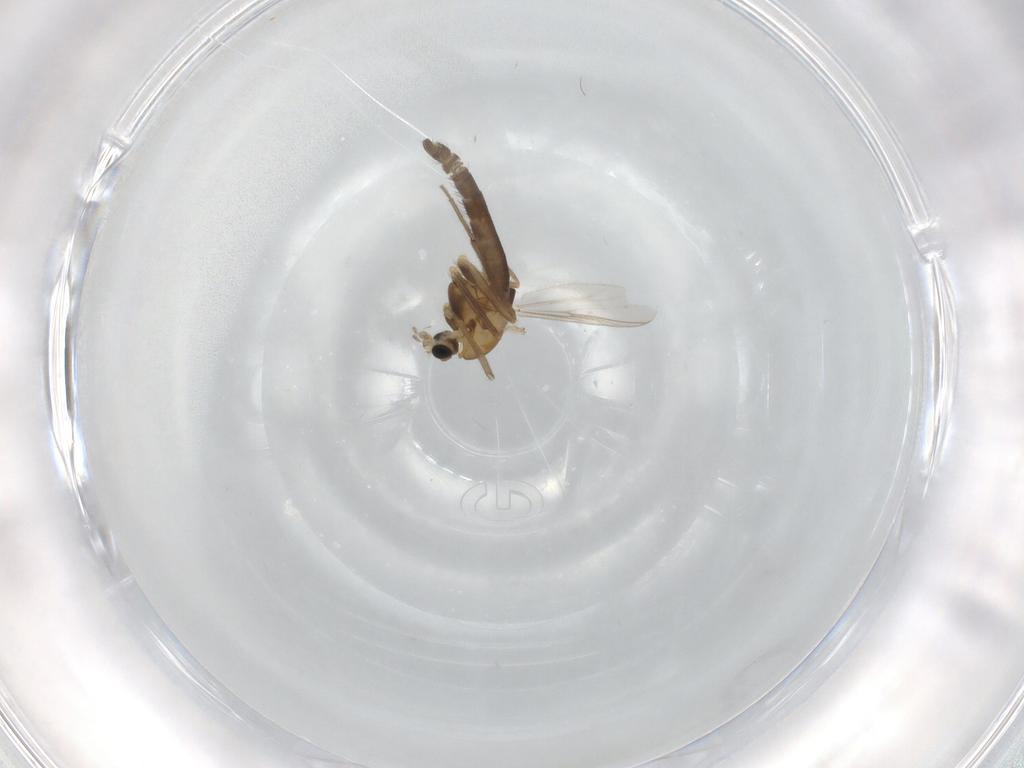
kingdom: Animalia
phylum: Arthropoda
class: Insecta
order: Diptera
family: Chironomidae
